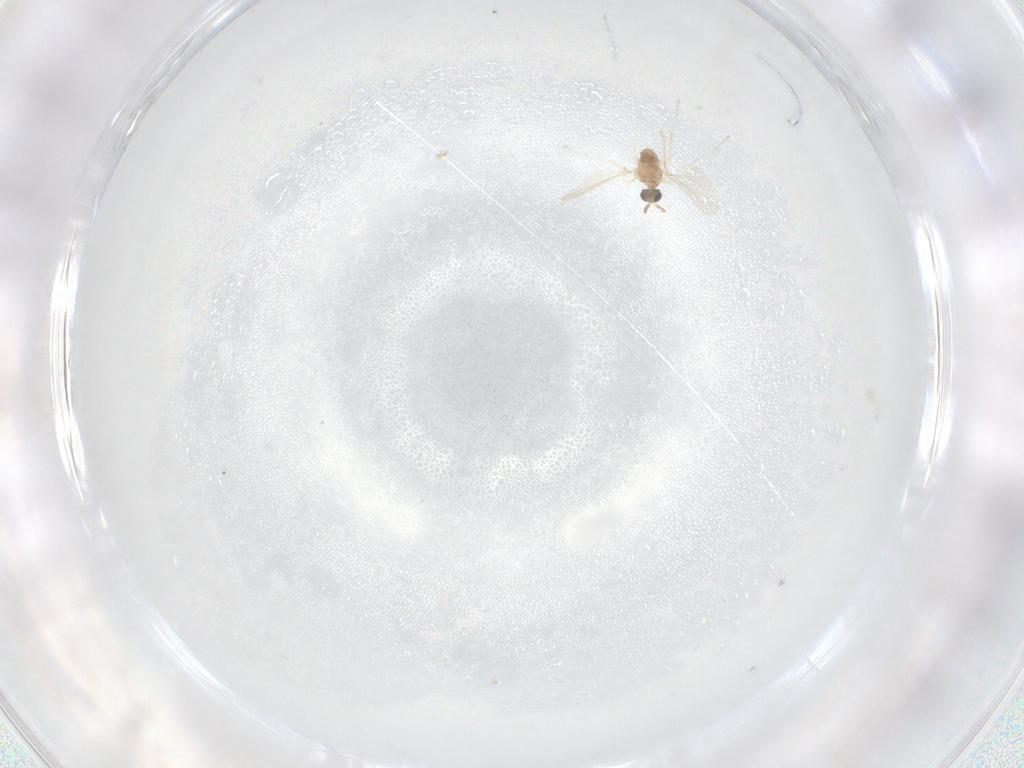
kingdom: Animalia
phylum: Arthropoda
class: Insecta
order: Diptera
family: Cecidomyiidae
